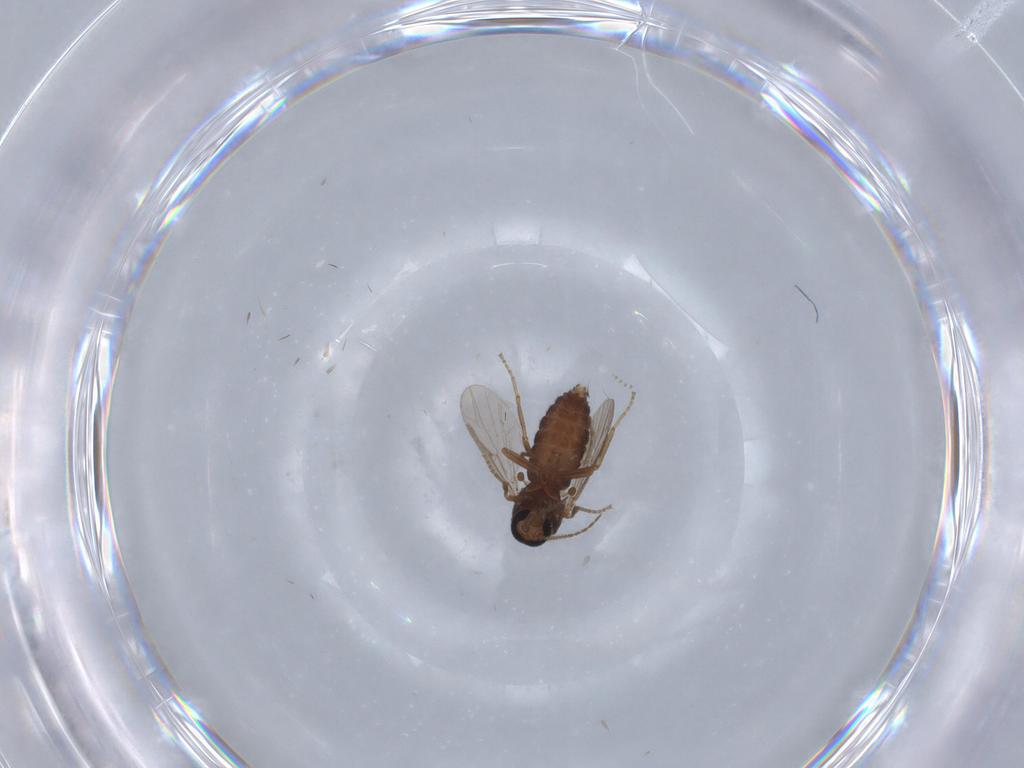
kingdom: Animalia
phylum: Arthropoda
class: Insecta
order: Diptera
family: Ceratopogonidae
